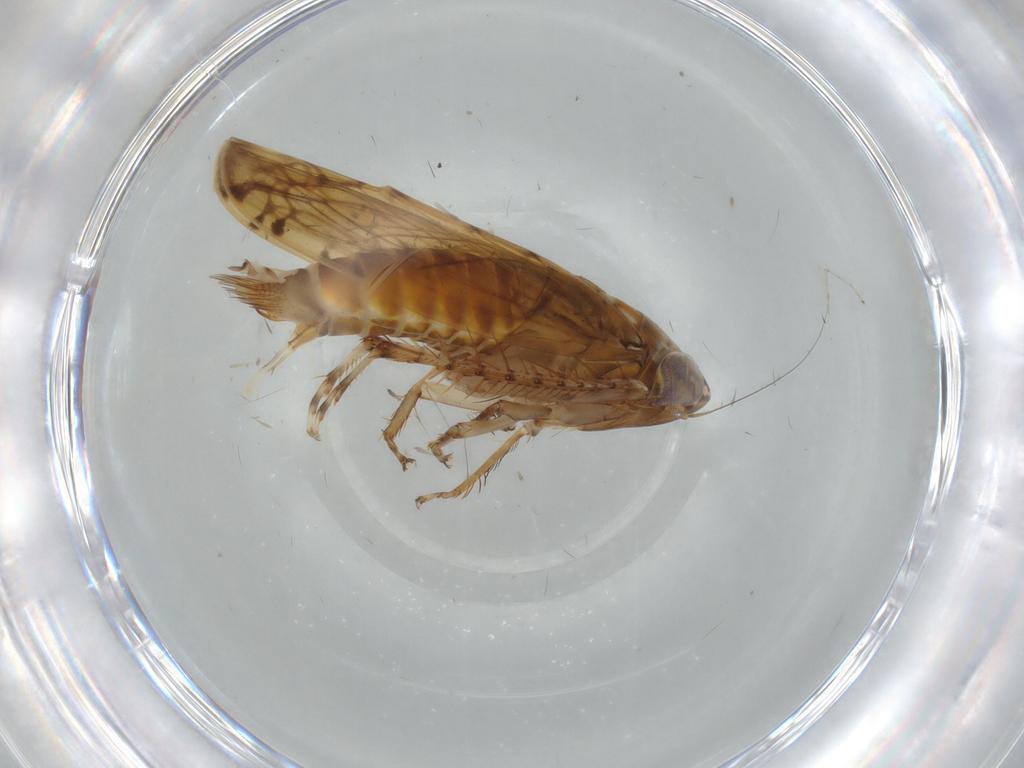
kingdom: Animalia
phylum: Arthropoda
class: Insecta
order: Hemiptera
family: Cicadellidae
